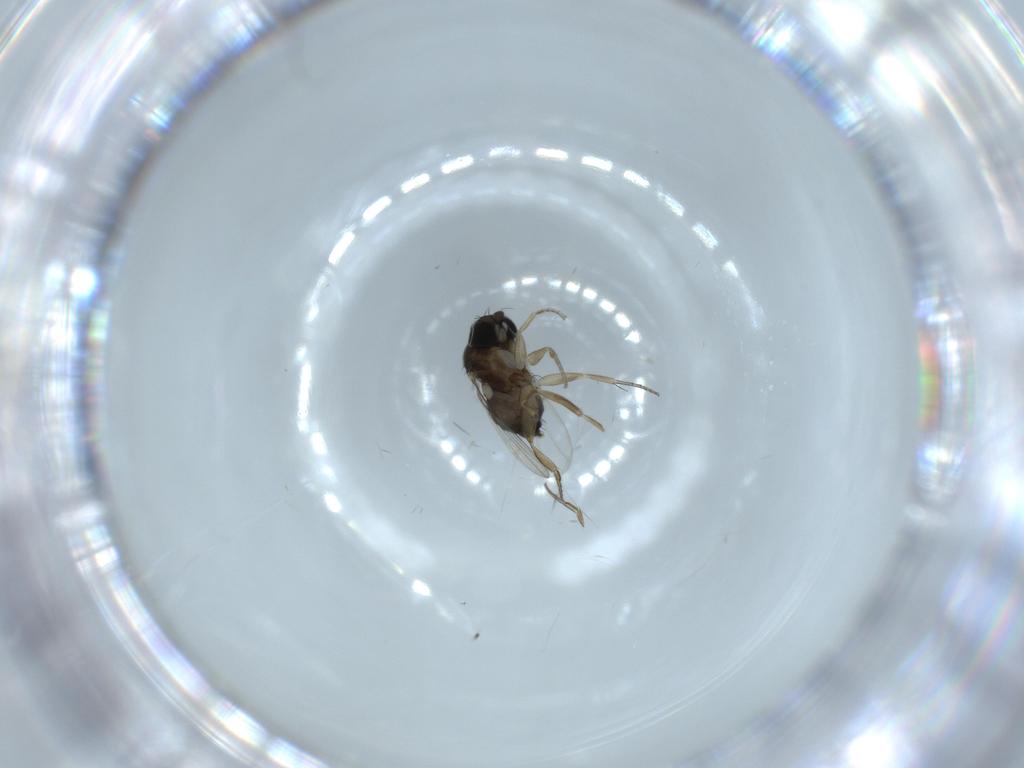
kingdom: Animalia
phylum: Arthropoda
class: Insecta
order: Diptera
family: Phoridae
